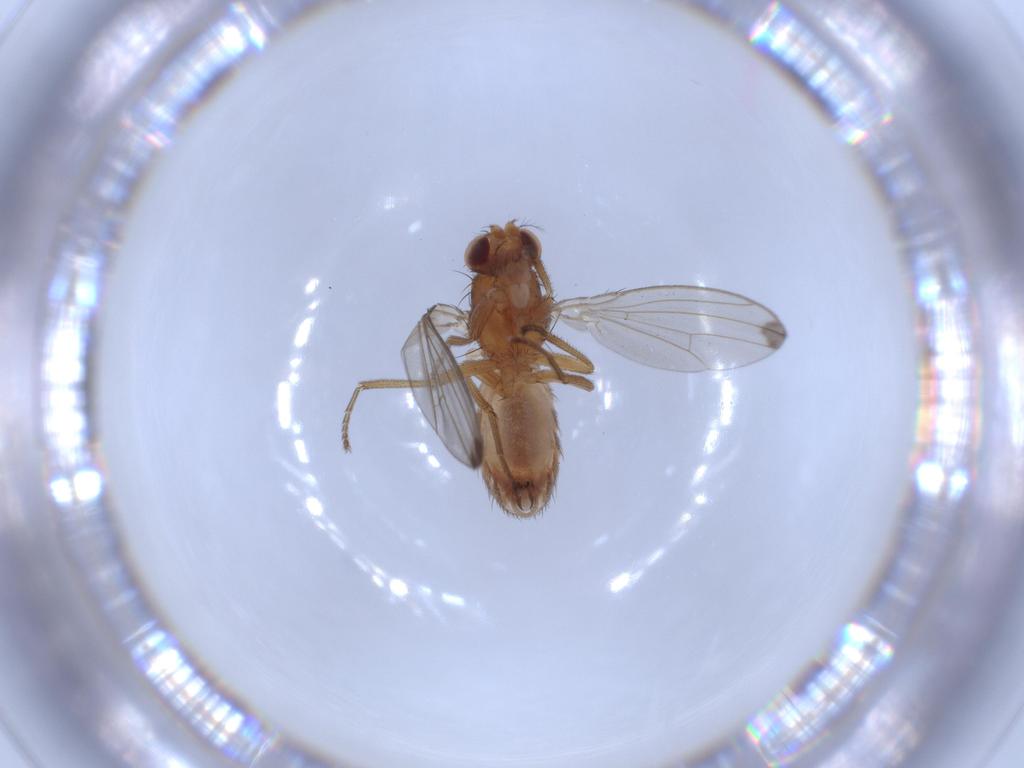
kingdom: Animalia
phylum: Arthropoda
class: Insecta
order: Diptera
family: Drosophilidae
